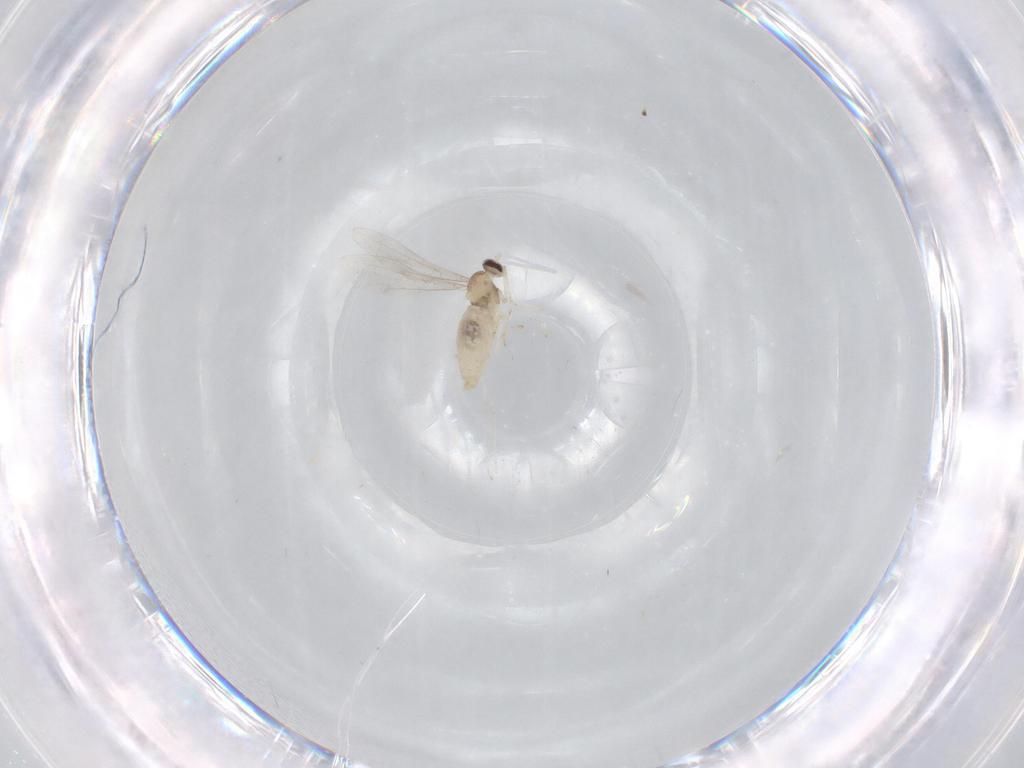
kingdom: Animalia
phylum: Arthropoda
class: Insecta
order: Diptera
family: Cecidomyiidae
